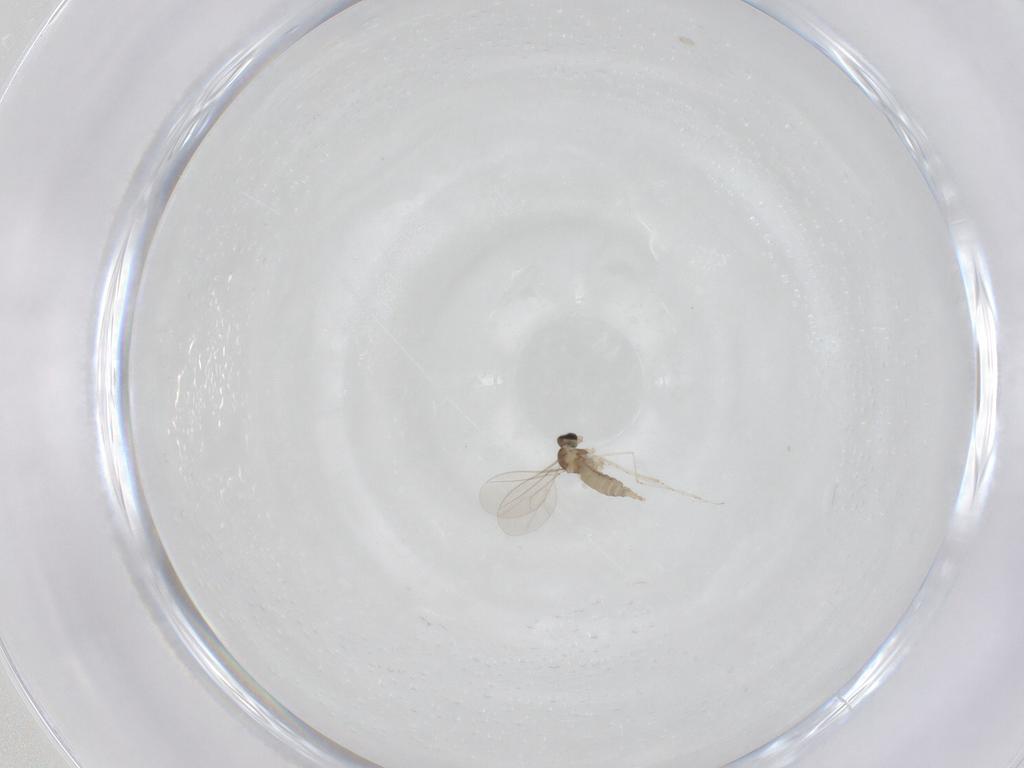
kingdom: Animalia
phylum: Arthropoda
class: Insecta
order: Diptera
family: Cecidomyiidae
